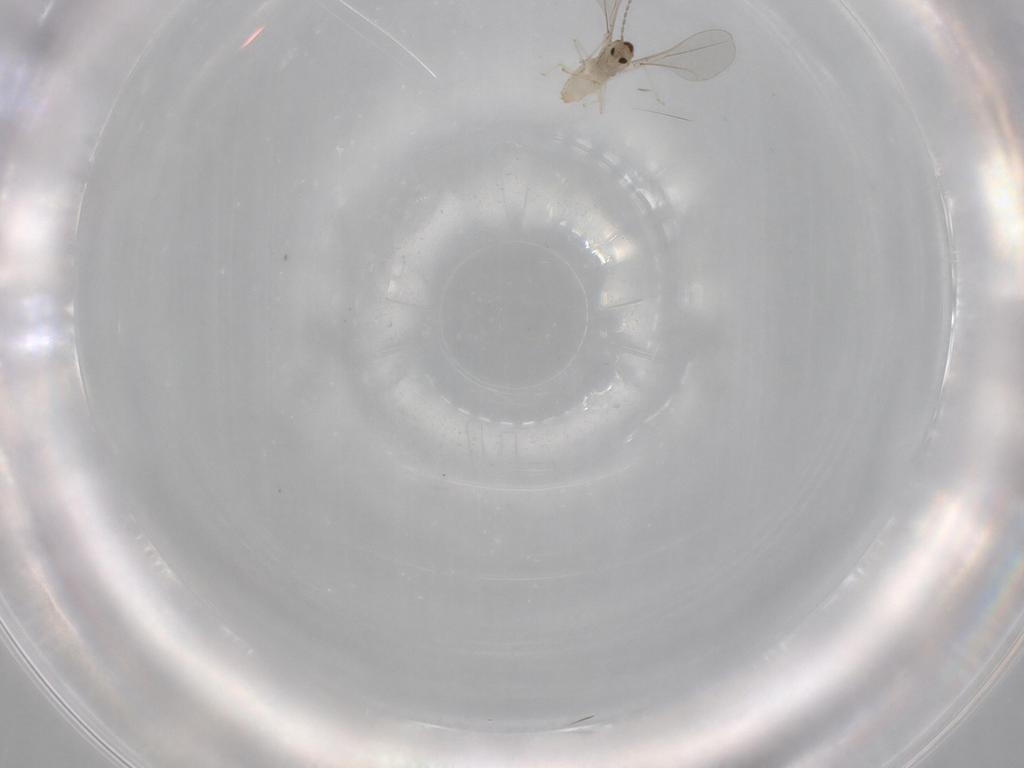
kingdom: Animalia
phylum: Arthropoda
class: Insecta
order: Diptera
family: Cecidomyiidae
